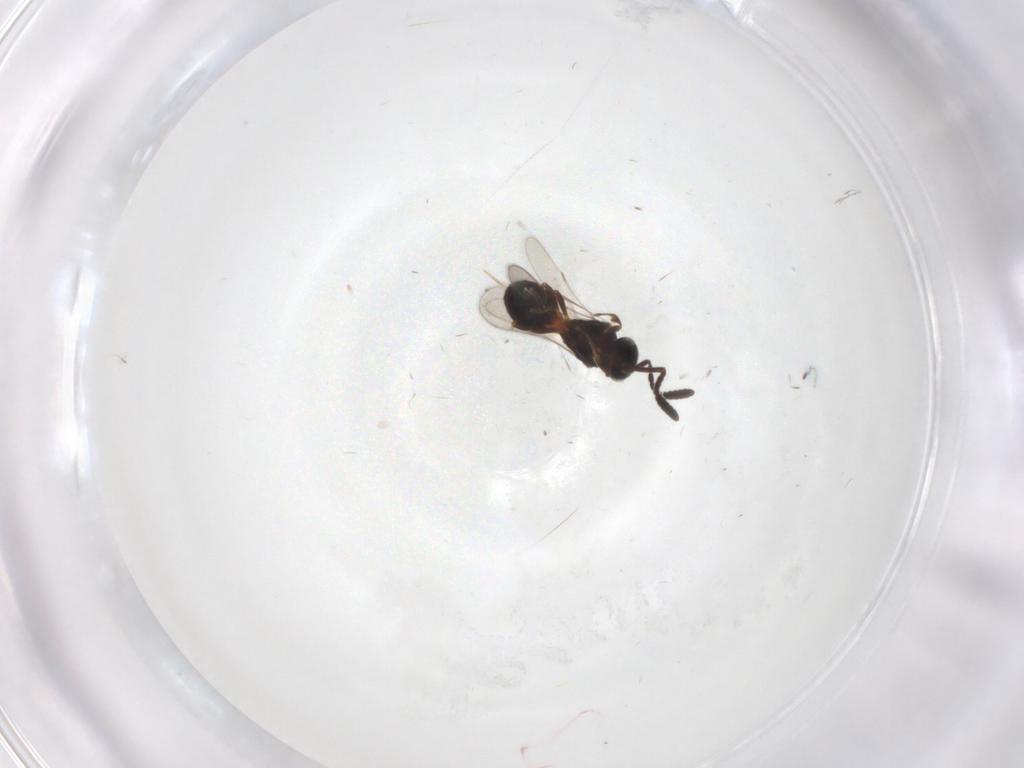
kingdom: Animalia
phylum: Arthropoda
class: Insecta
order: Hymenoptera
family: Scelionidae
